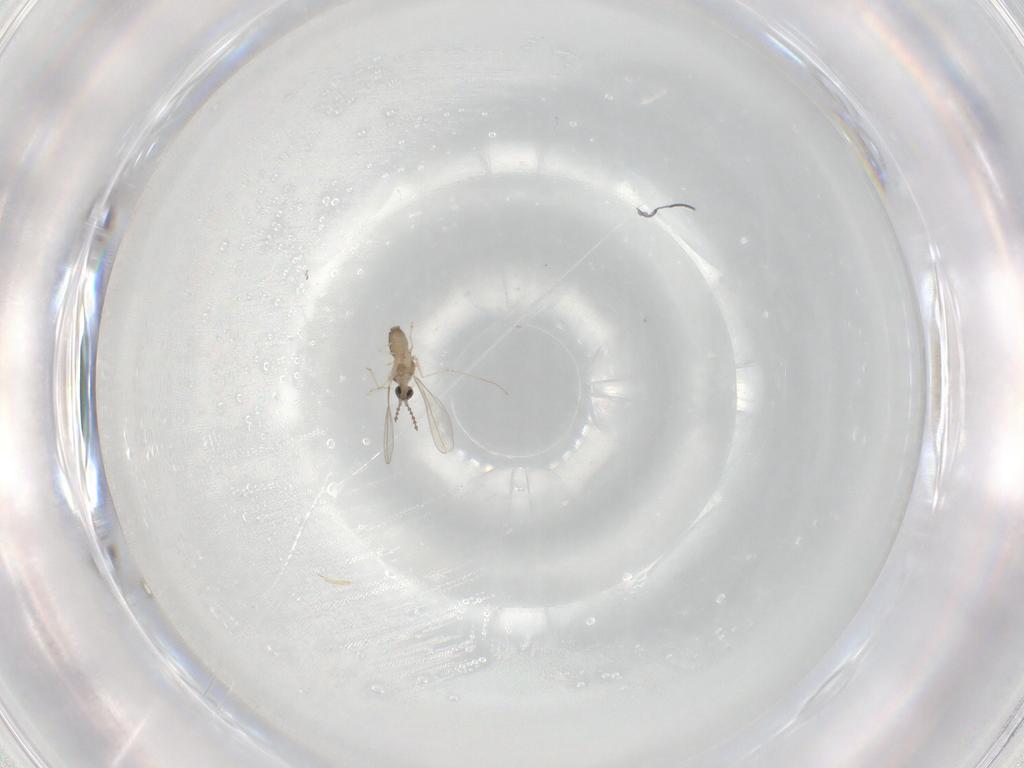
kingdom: Animalia
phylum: Arthropoda
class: Insecta
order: Diptera
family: Cecidomyiidae
